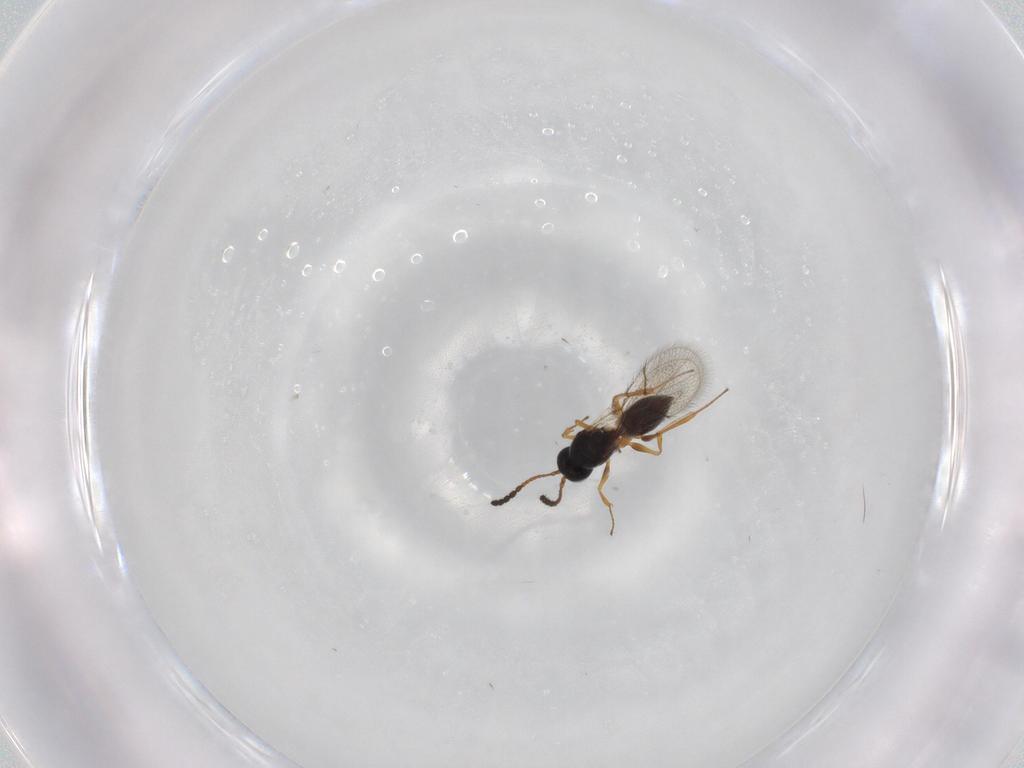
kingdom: Animalia
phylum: Arthropoda
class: Insecta
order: Hymenoptera
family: Figitidae
